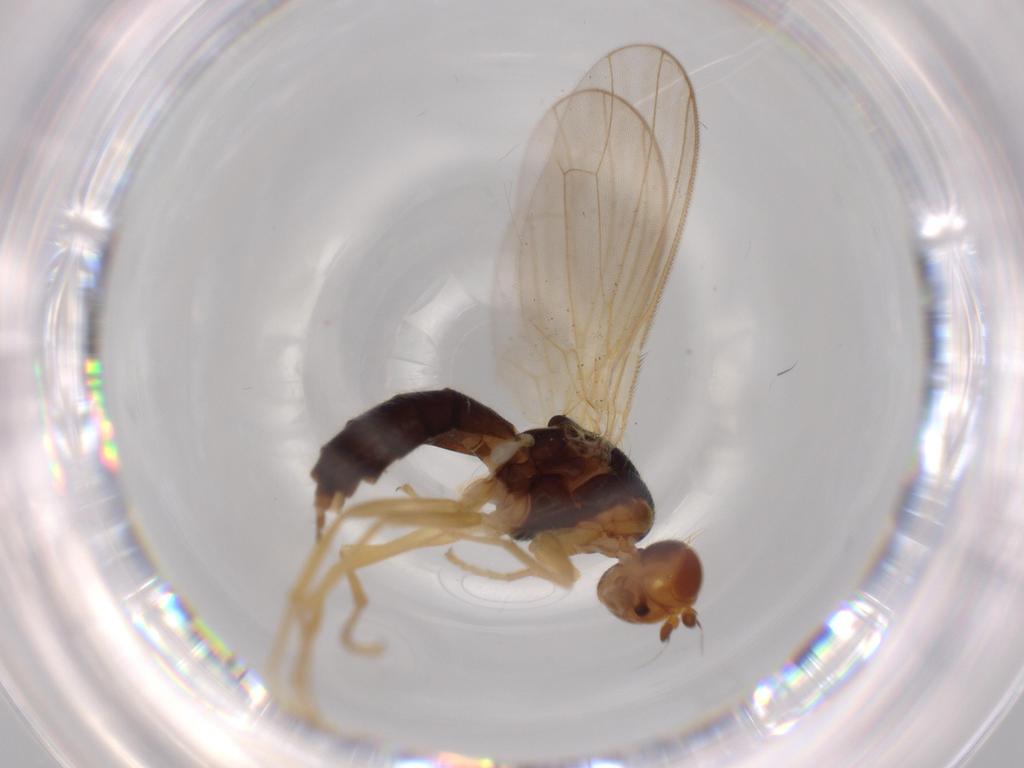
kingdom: Animalia
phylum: Arthropoda
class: Insecta
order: Diptera
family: Psilidae
